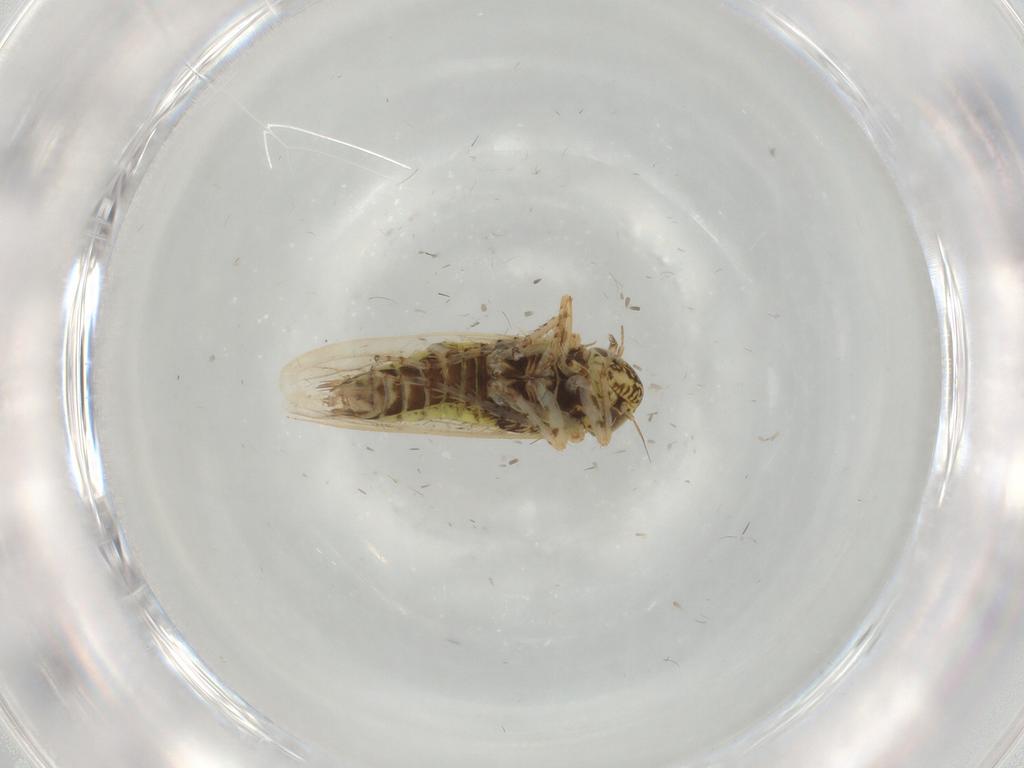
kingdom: Animalia
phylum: Arthropoda
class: Insecta
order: Hemiptera
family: Cicadellidae
